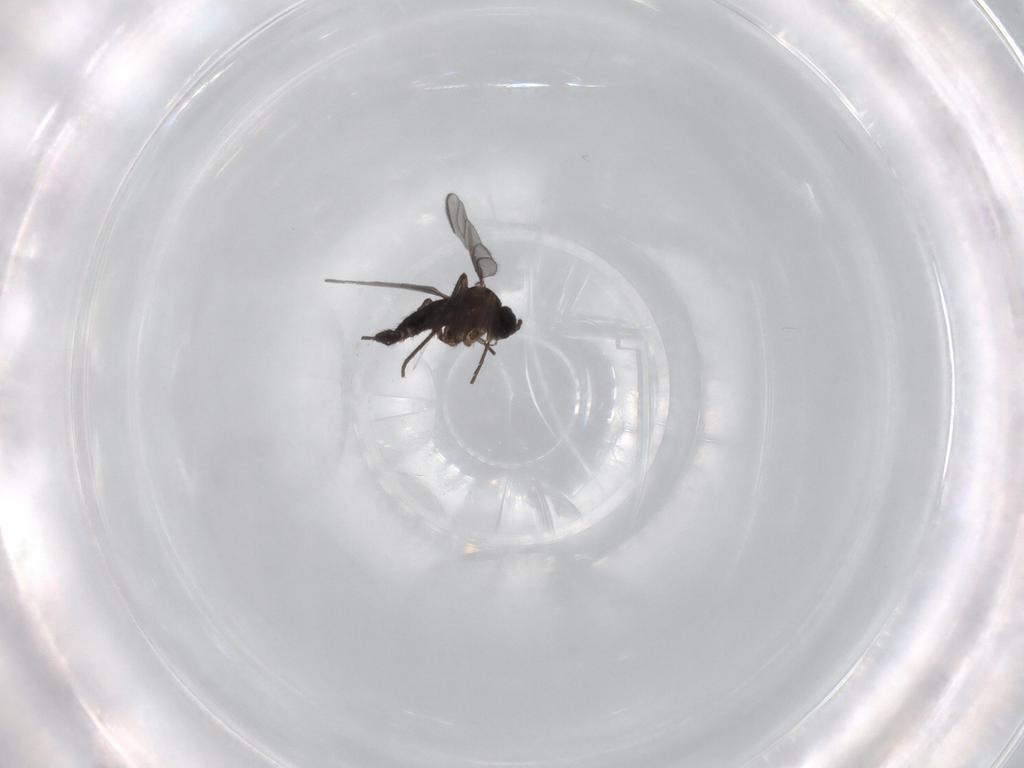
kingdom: Animalia
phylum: Arthropoda
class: Insecta
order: Diptera
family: Sciaridae
